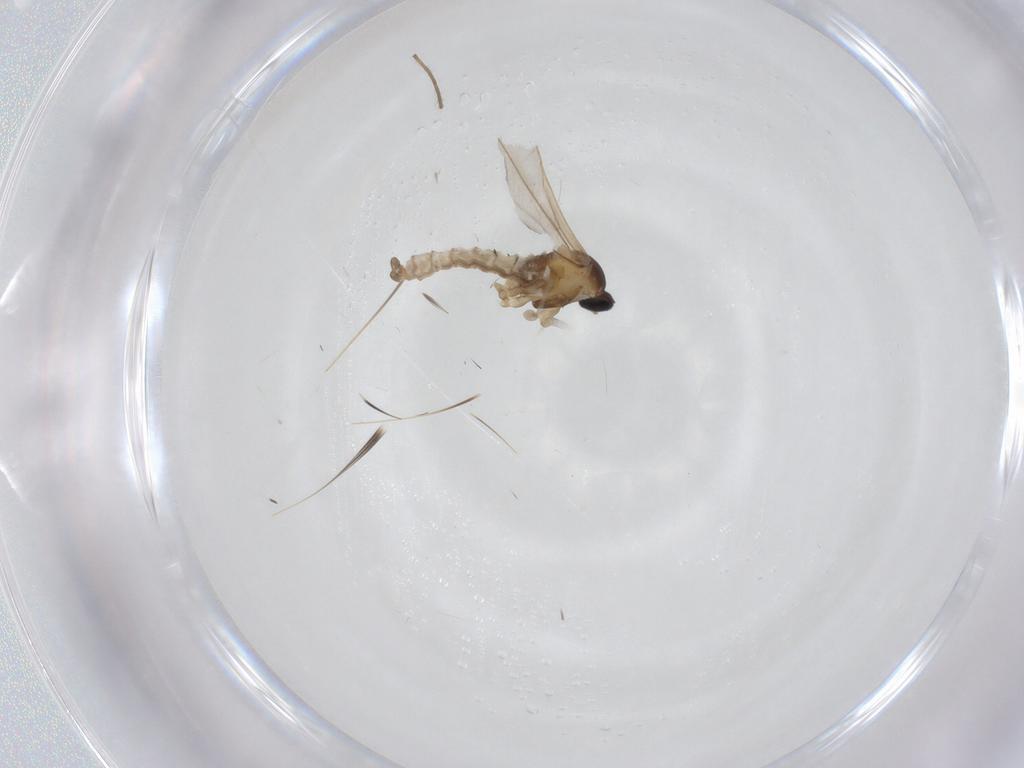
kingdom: Animalia
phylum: Arthropoda
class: Insecta
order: Diptera
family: Cecidomyiidae
